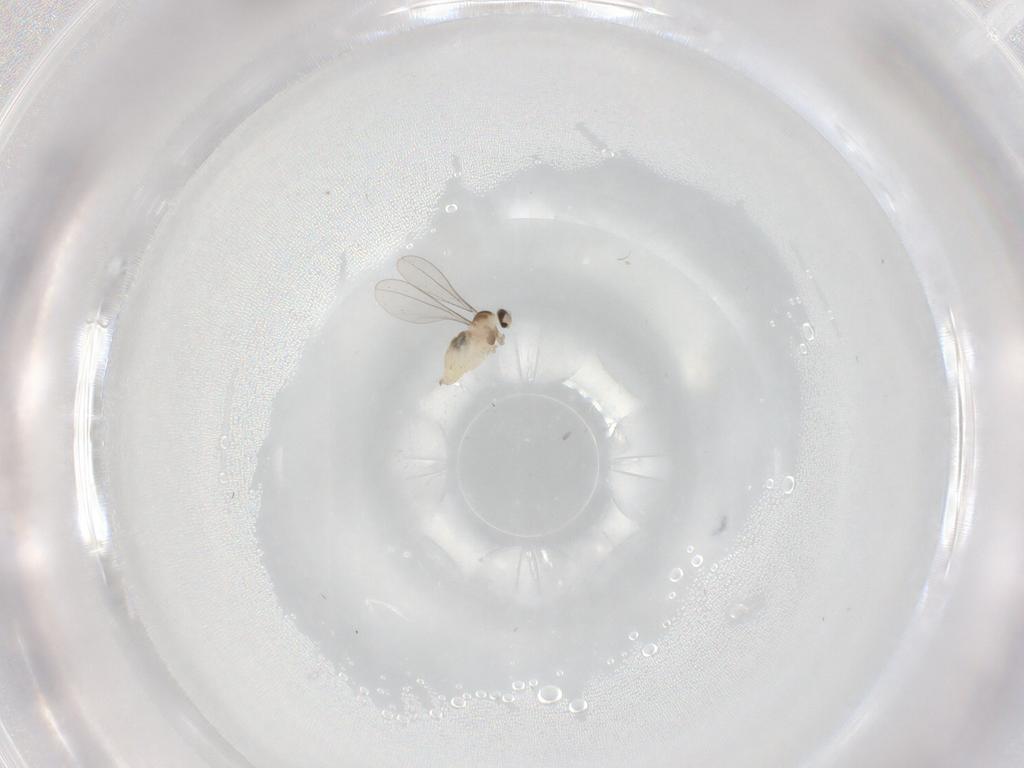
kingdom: Animalia
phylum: Arthropoda
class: Insecta
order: Diptera
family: Cecidomyiidae
